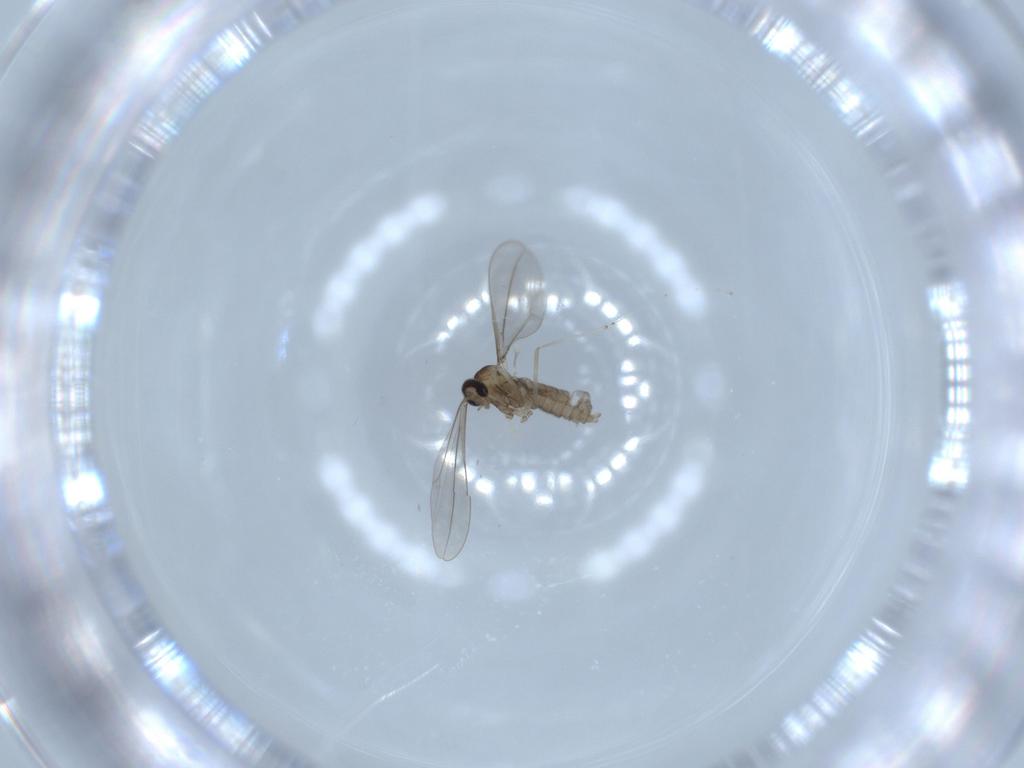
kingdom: Animalia
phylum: Arthropoda
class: Insecta
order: Diptera
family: Cecidomyiidae
